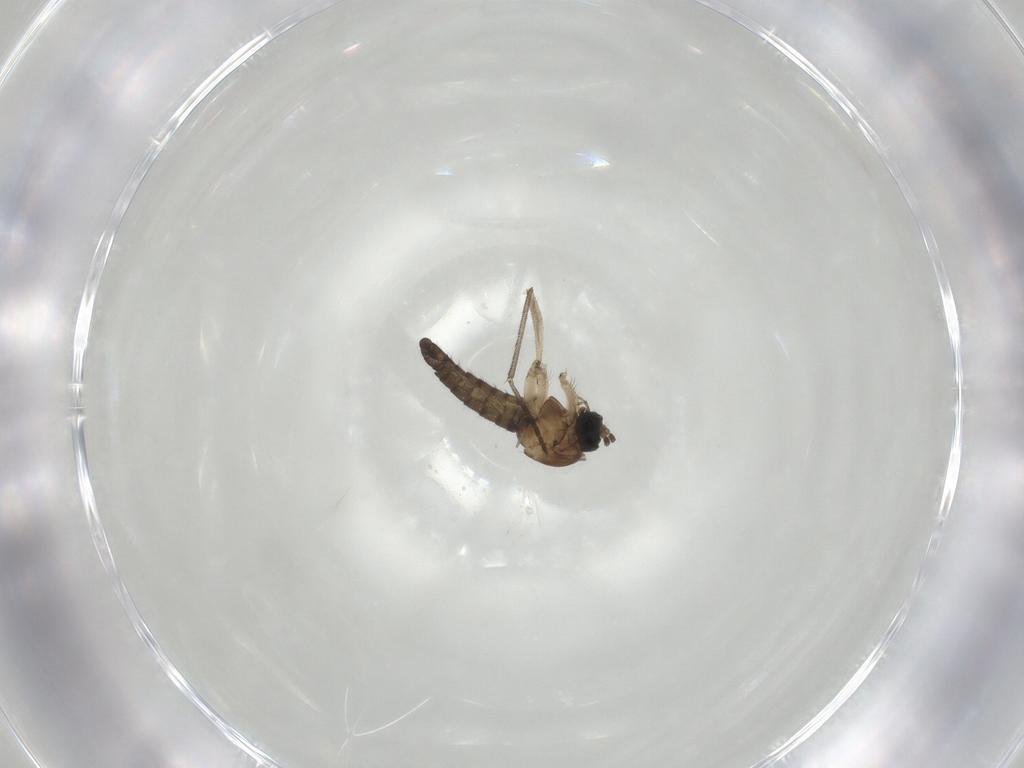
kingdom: Animalia
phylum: Arthropoda
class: Insecta
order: Diptera
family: Sciaridae
